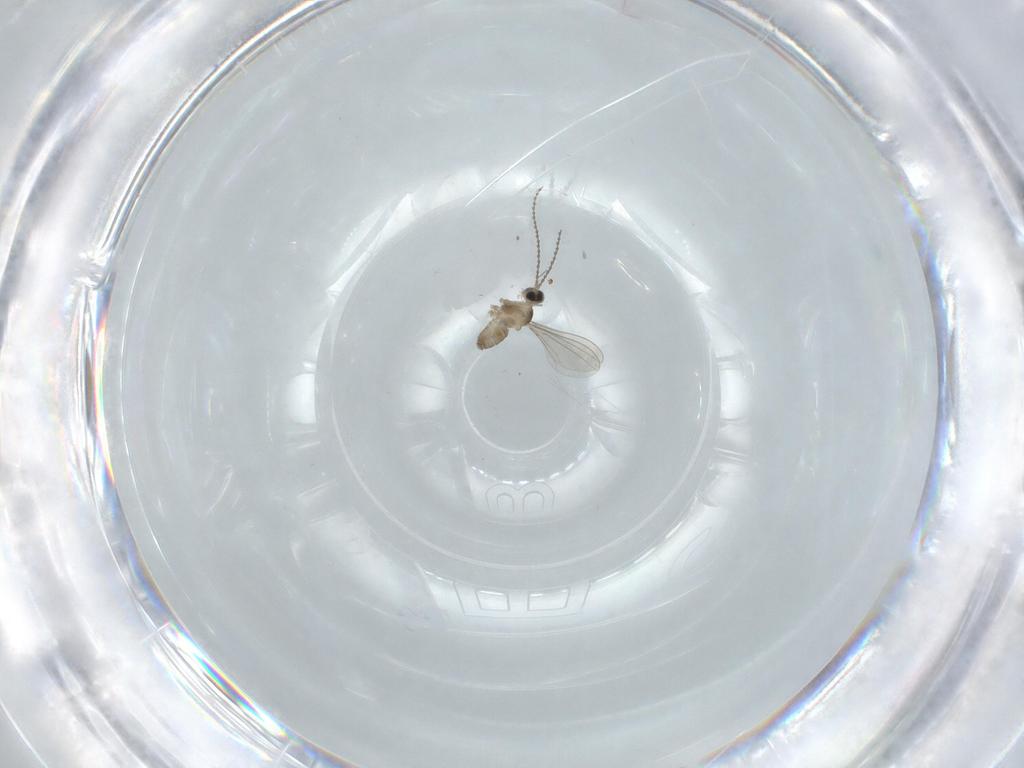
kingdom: Animalia
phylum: Arthropoda
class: Insecta
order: Diptera
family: Cecidomyiidae
